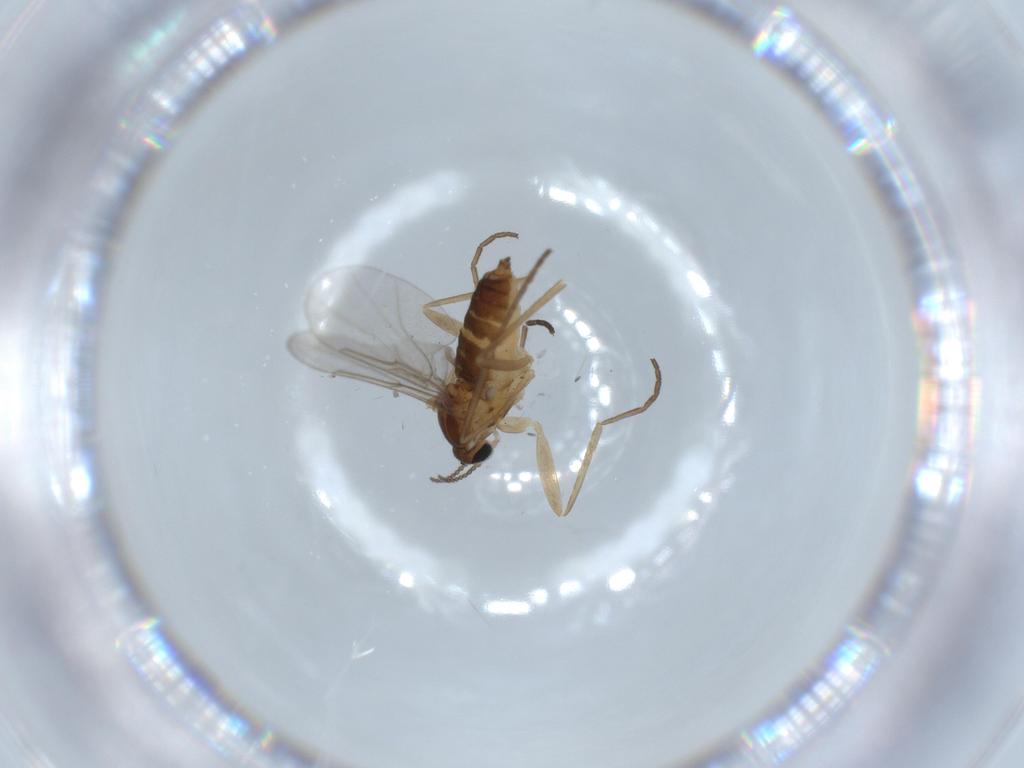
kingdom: Animalia
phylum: Arthropoda
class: Insecta
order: Diptera
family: Cecidomyiidae
